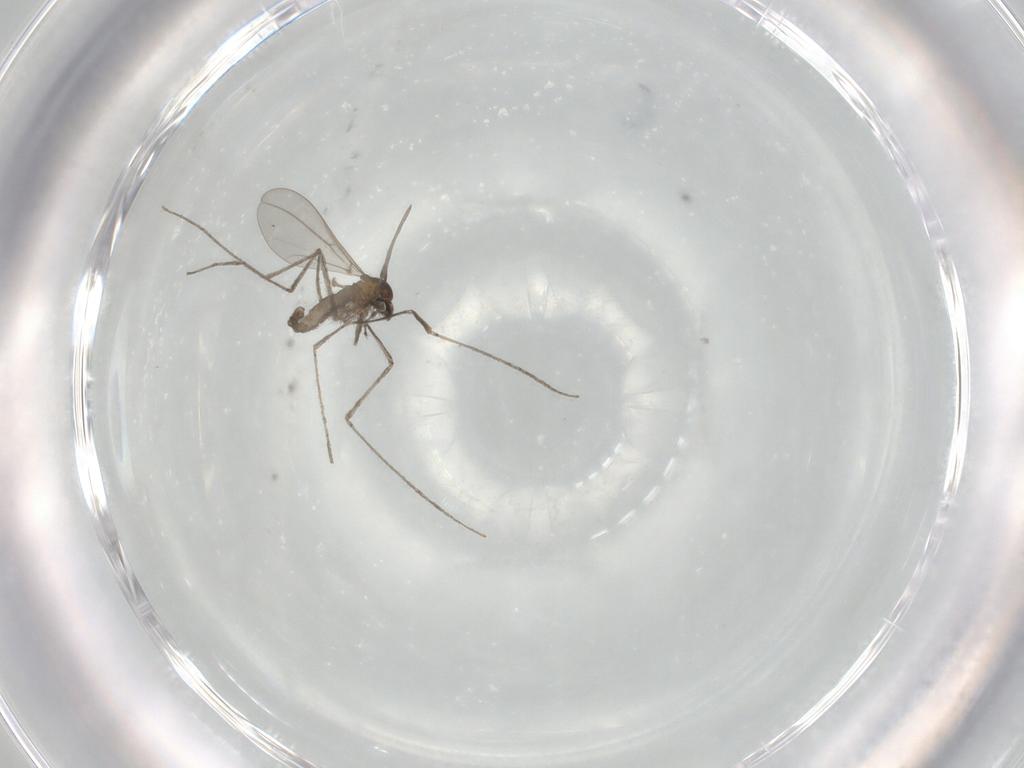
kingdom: Animalia
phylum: Arthropoda
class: Insecta
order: Diptera
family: Cecidomyiidae
